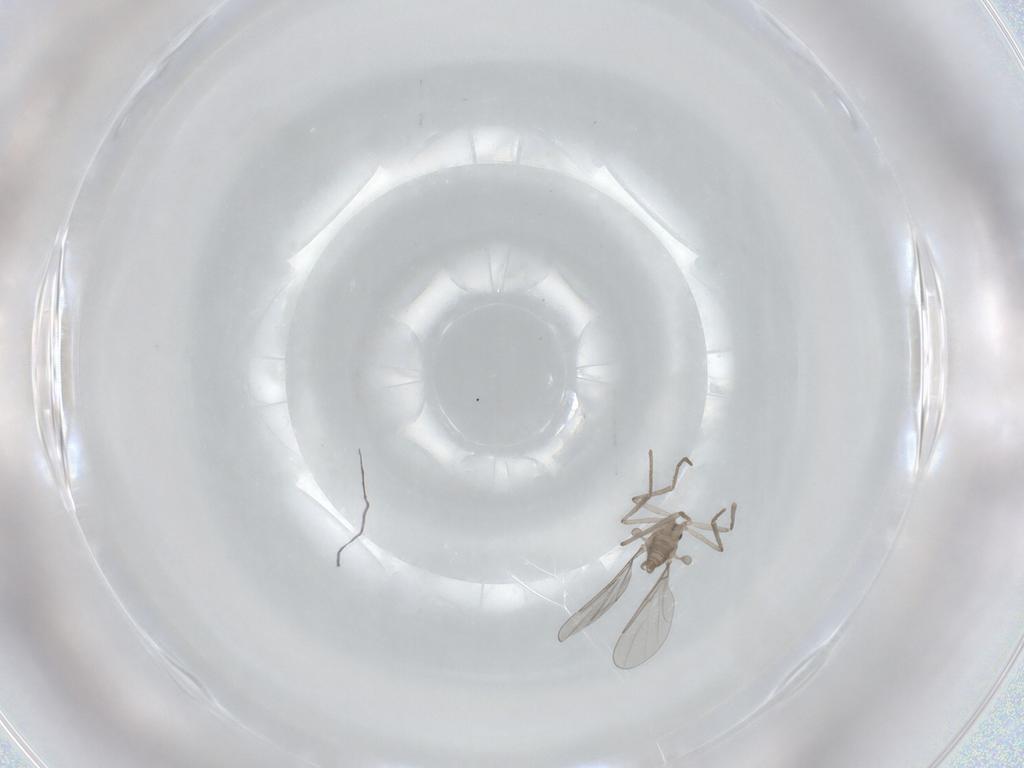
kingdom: Animalia
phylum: Arthropoda
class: Insecta
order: Diptera
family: Cecidomyiidae
